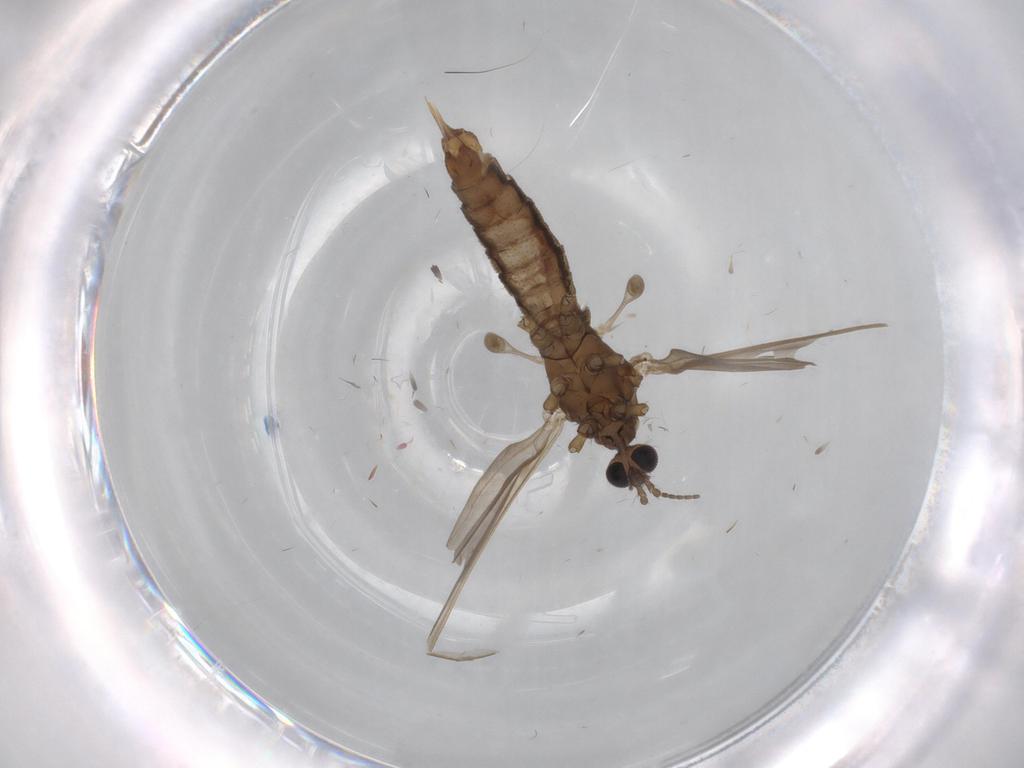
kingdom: Animalia
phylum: Arthropoda
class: Insecta
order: Diptera
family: Limoniidae
